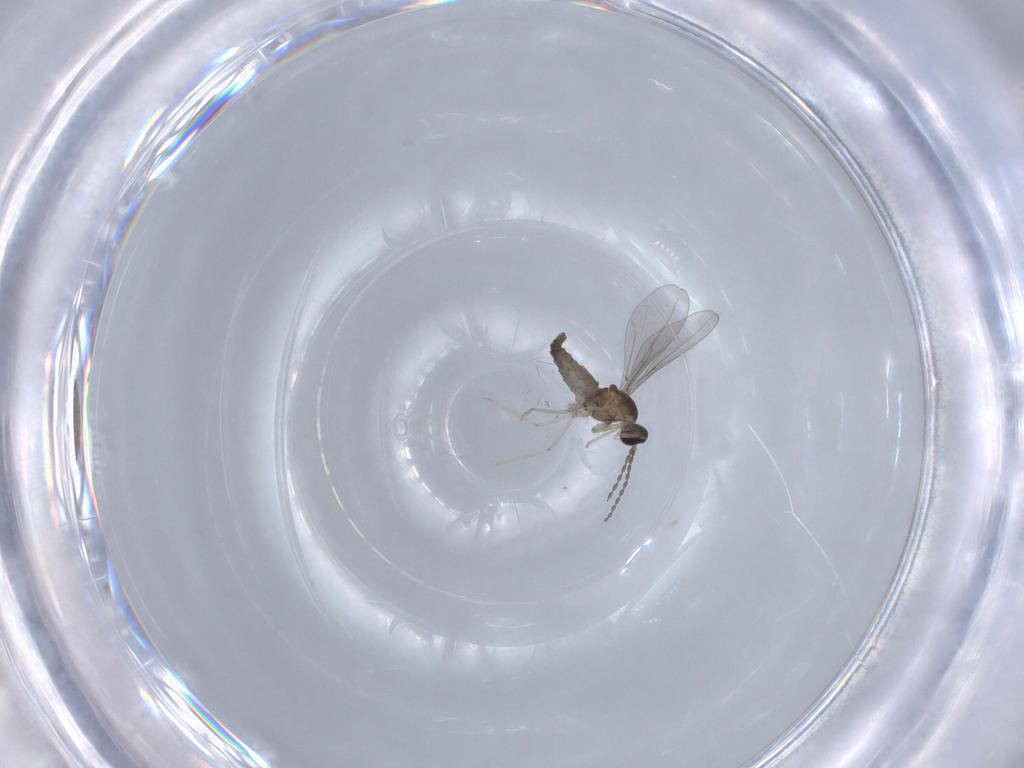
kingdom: Animalia
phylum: Arthropoda
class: Insecta
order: Diptera
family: Cecidomyiidae
